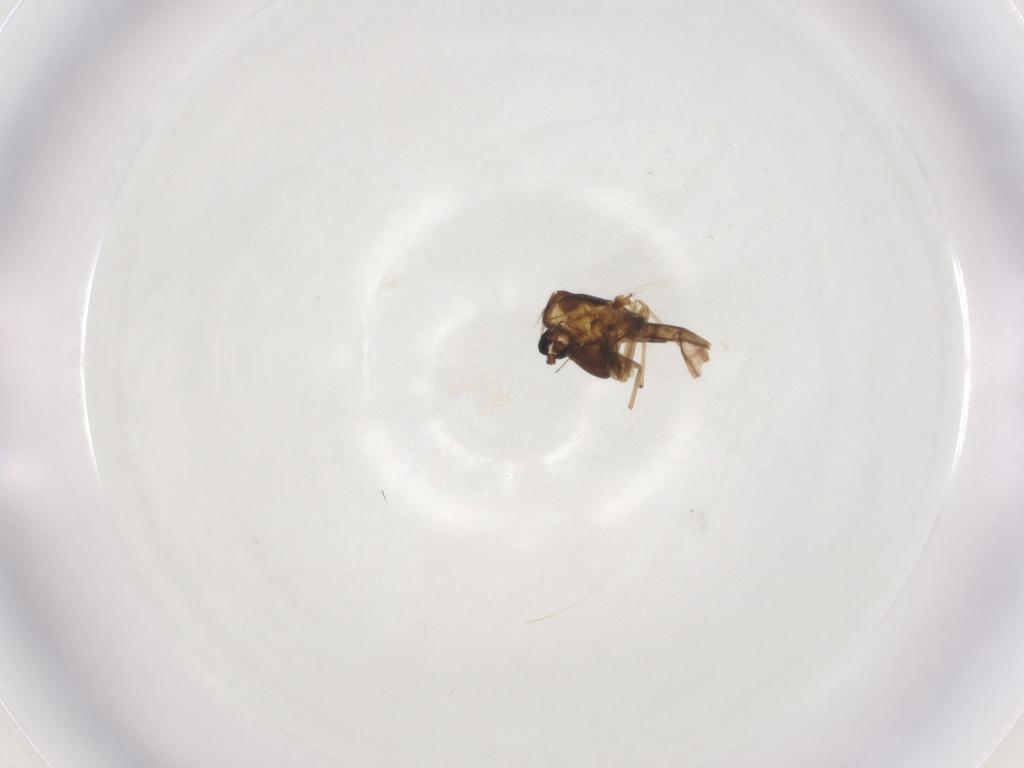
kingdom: Animalia
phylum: Arthropoda
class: Insecta
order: Diptera
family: Chironomidae
